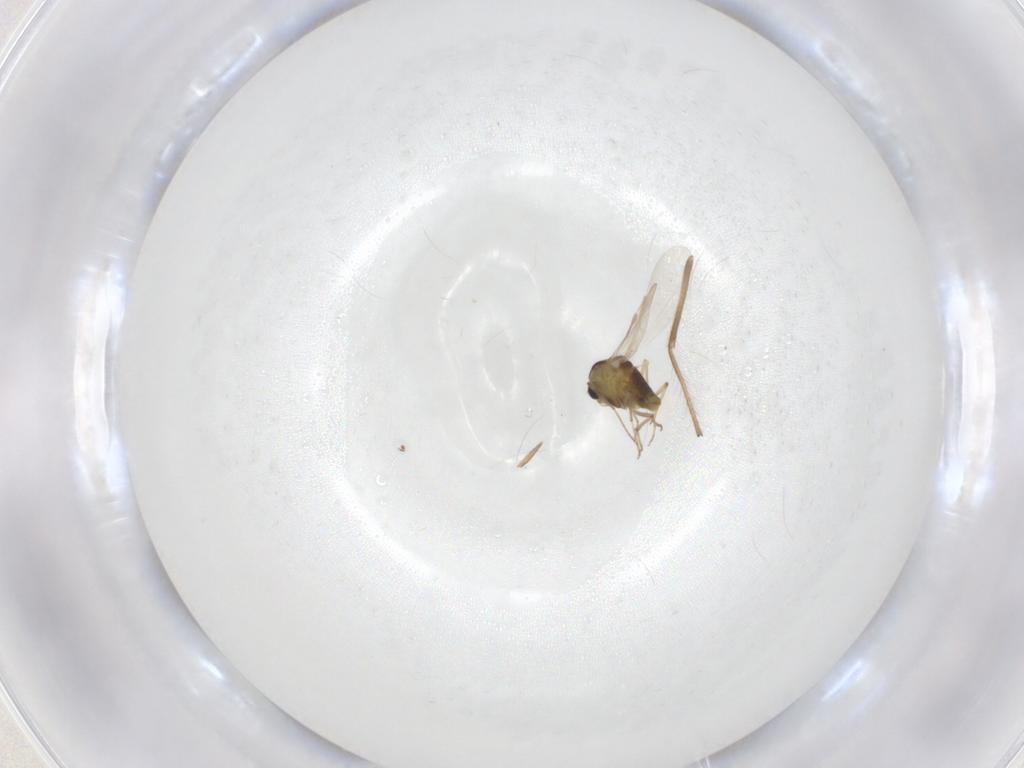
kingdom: Animalia
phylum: Arthropoda
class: Insecta
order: Diptera
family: Chironomidae
